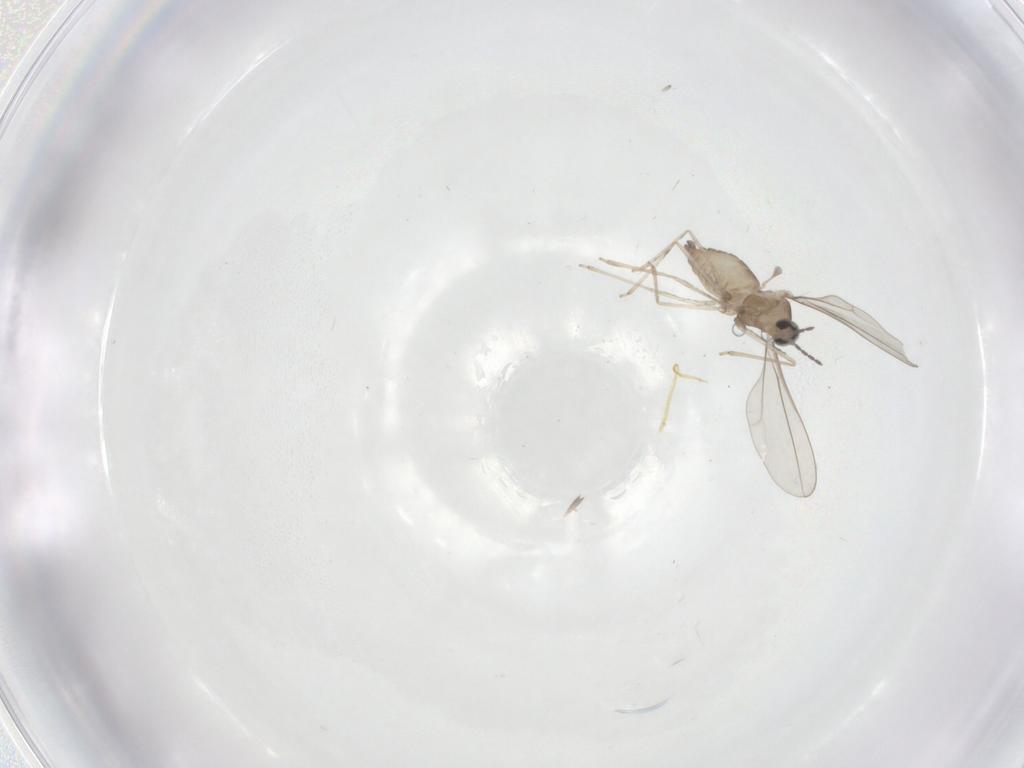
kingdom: Animalia
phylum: Arthropoda
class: Insecta
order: Diptera
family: Cecidomyiidae
